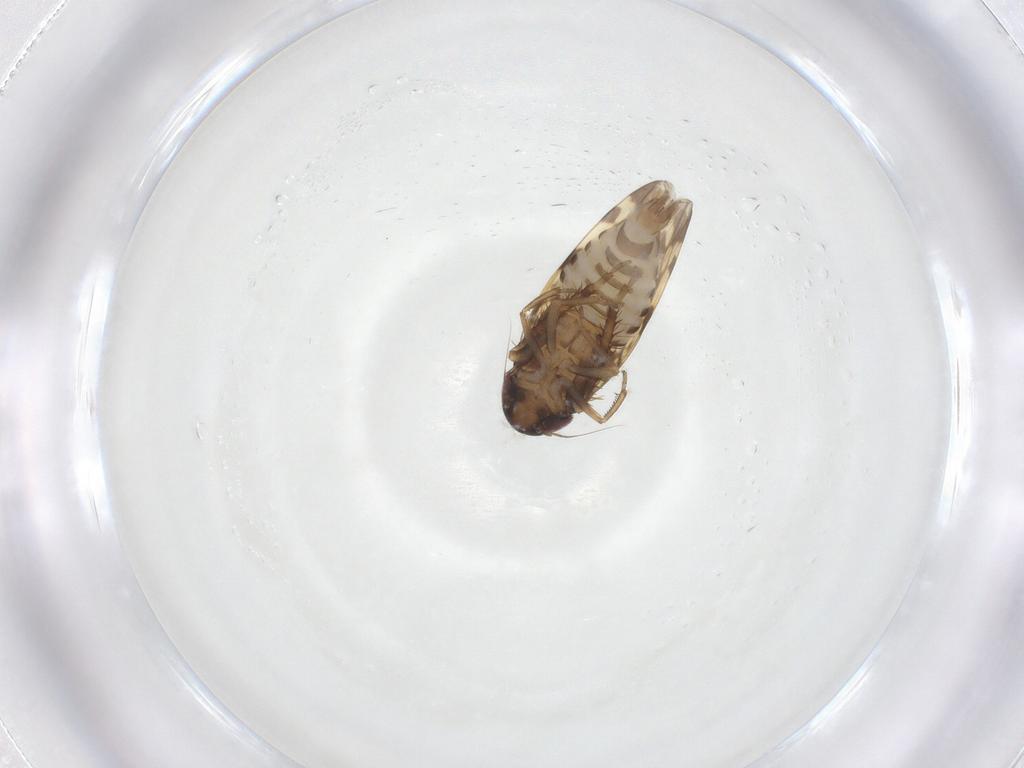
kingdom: Animalia
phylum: Arthropoda
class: Insecta
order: Hemiptera
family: Cicadellidae
